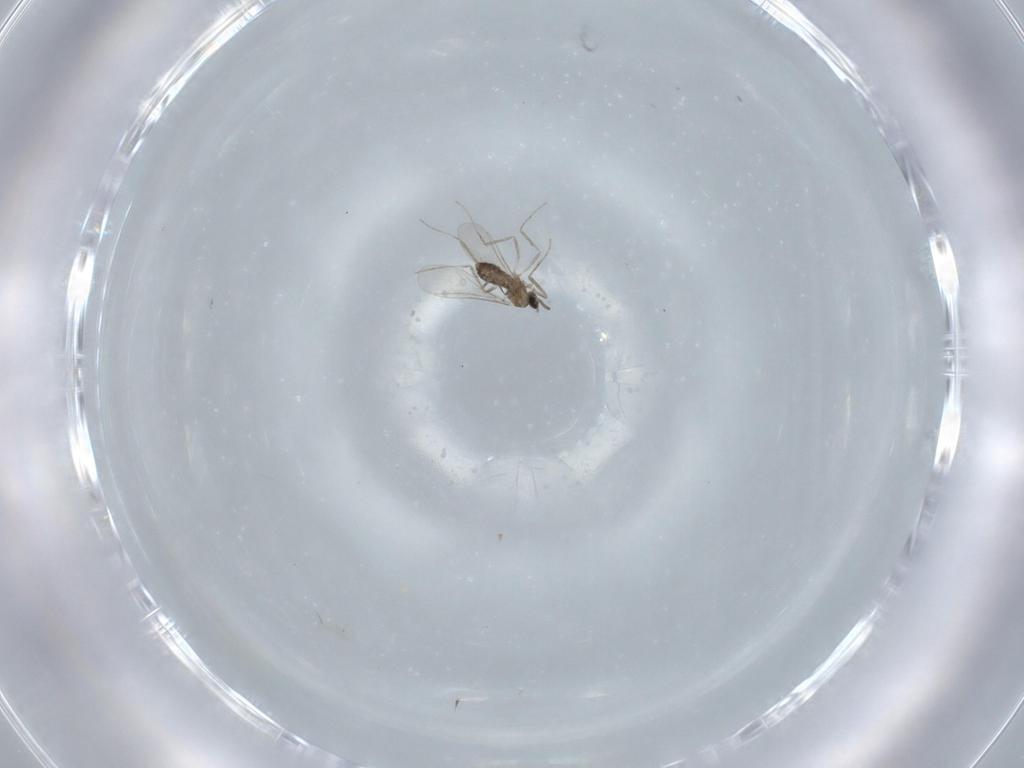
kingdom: Animalia
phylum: Arthropoda
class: Insecta
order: Diptera
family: Cecidomyiidae
